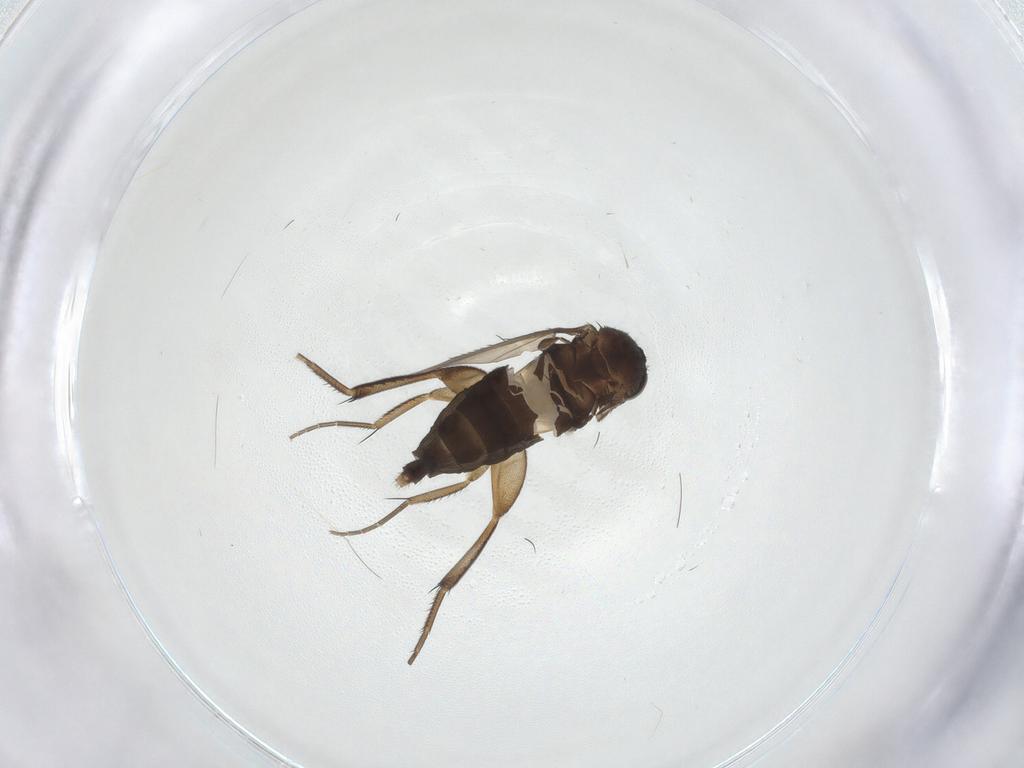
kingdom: Animalia
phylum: Arthropoda
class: Insecta
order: Diptera
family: Phoridae
